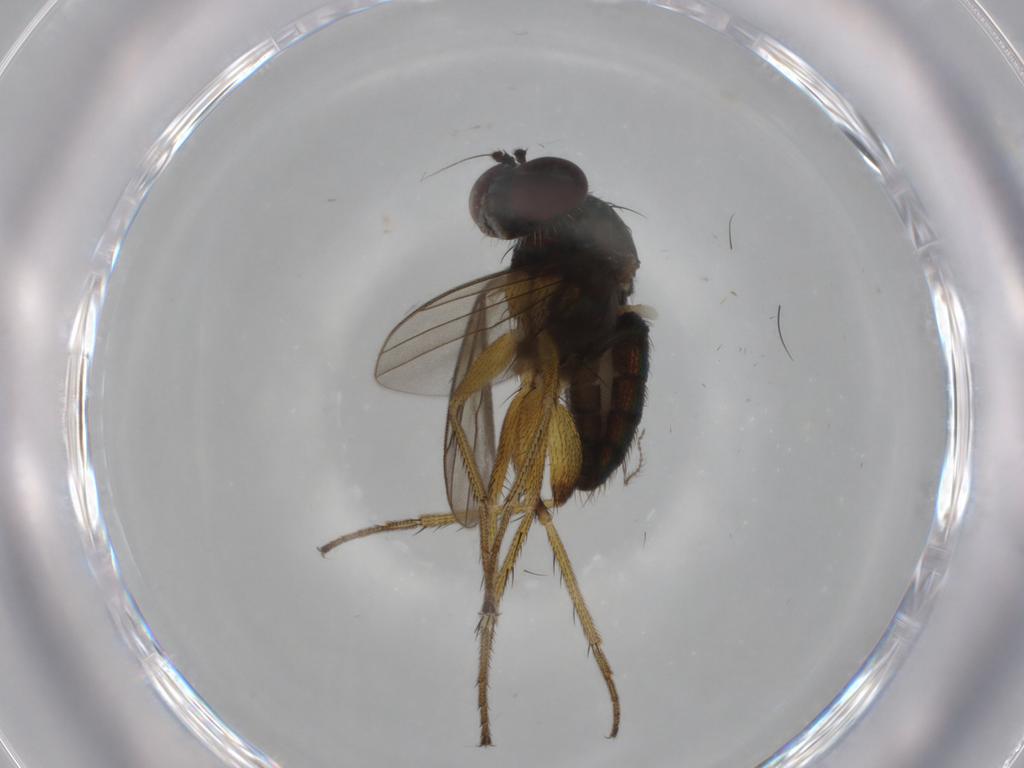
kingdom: Animalia
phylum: Arthropoda
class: Insecta
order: Diptera
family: Dolichopodidae
